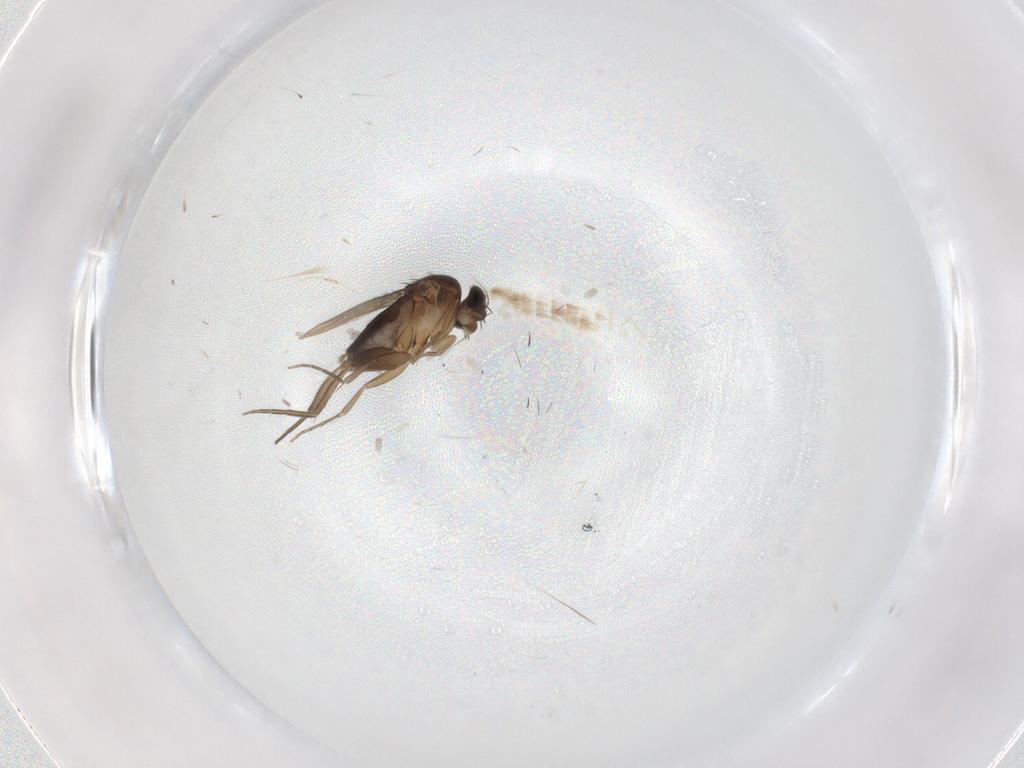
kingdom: Animalia
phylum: Arthropoda
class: Insecta
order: Diptera
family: Phoridae
